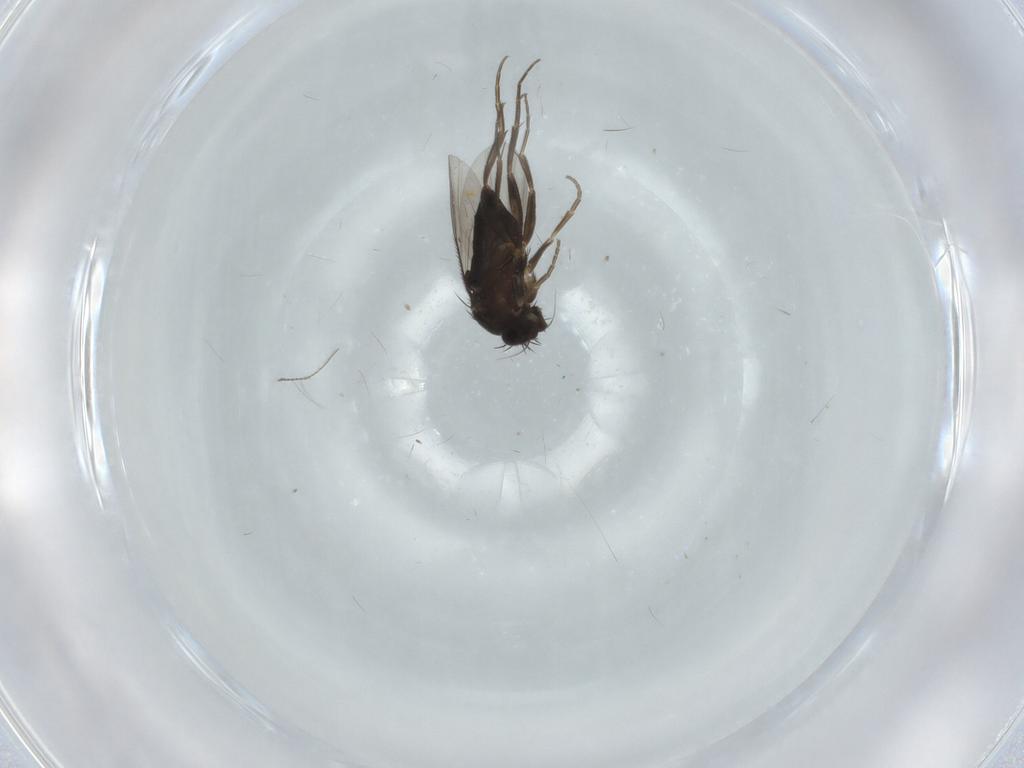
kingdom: Animalia
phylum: Arthropoda
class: Insecta
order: Diptera
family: Chironomidae
